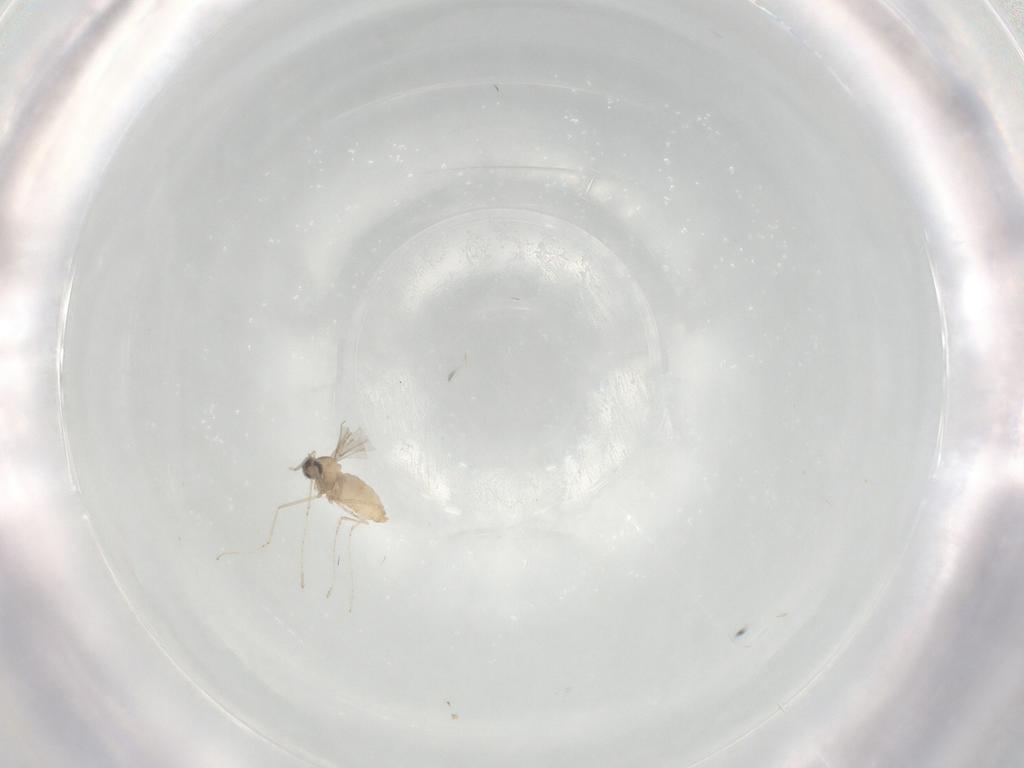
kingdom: Animalia
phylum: Arthropoda
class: Insecta
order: Diptera
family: Cecidomyiidae
